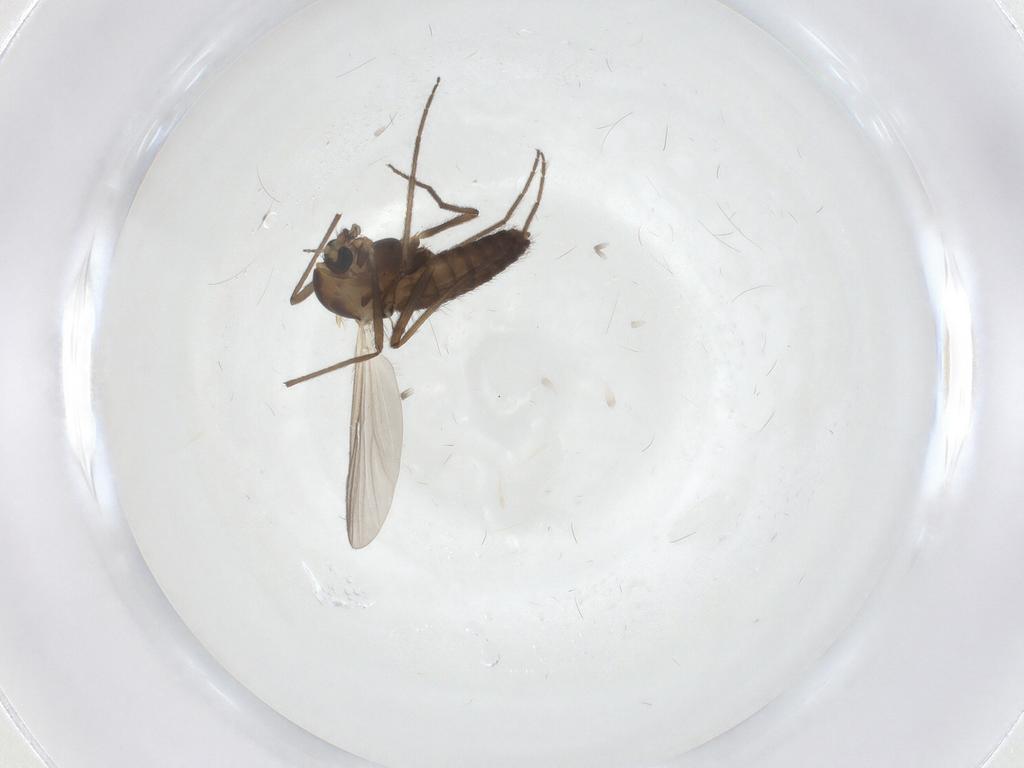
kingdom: Animalia
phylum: Arthropoda
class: Insecta
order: Diptera
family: Chironomidae
